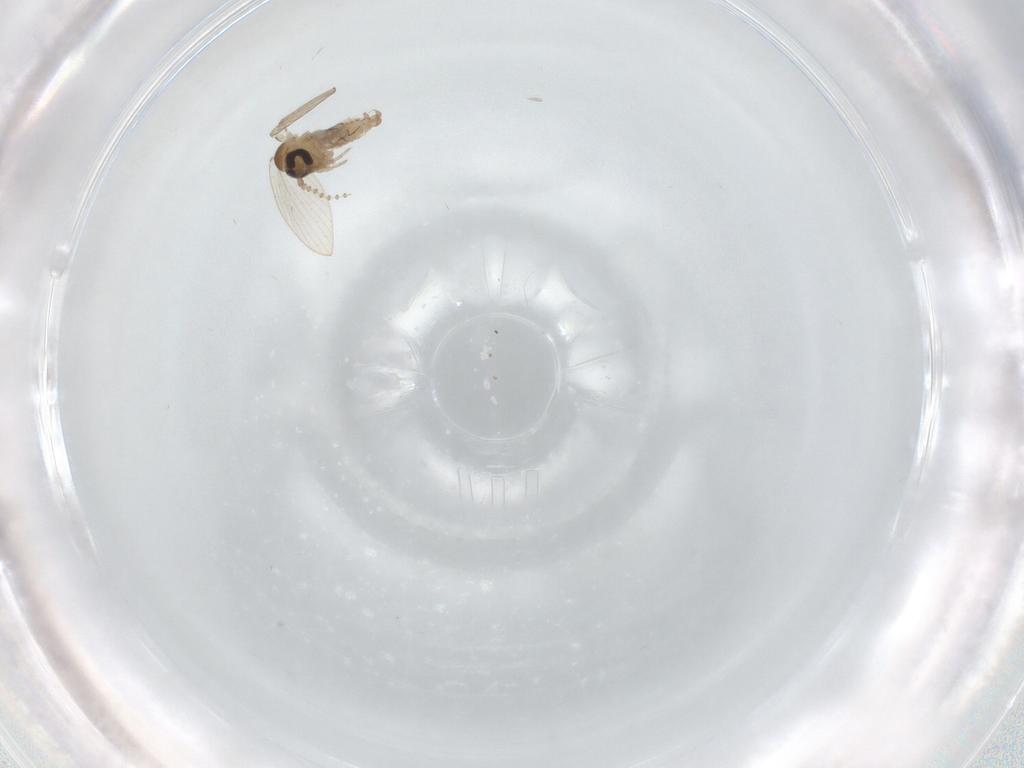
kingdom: Animalia
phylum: Arthropoda
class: Insecta
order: Diptera
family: Psychodidae
